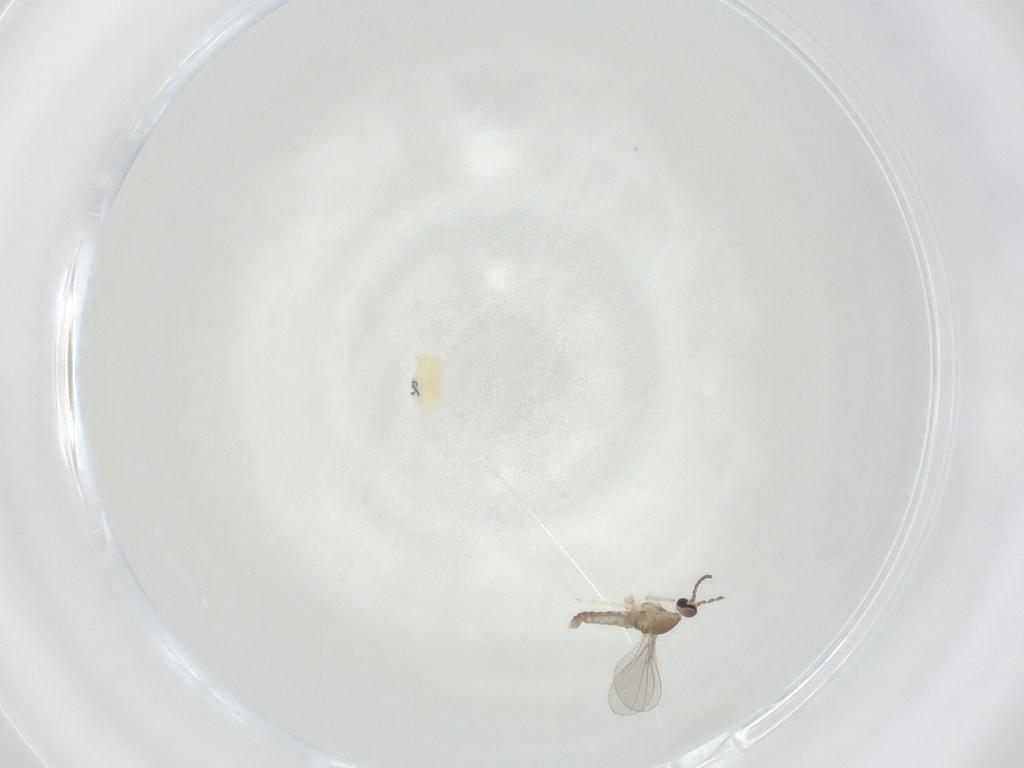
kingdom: Animalia
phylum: Arthropoda
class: Insecta
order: Diptera
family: Cecidomyiidae
